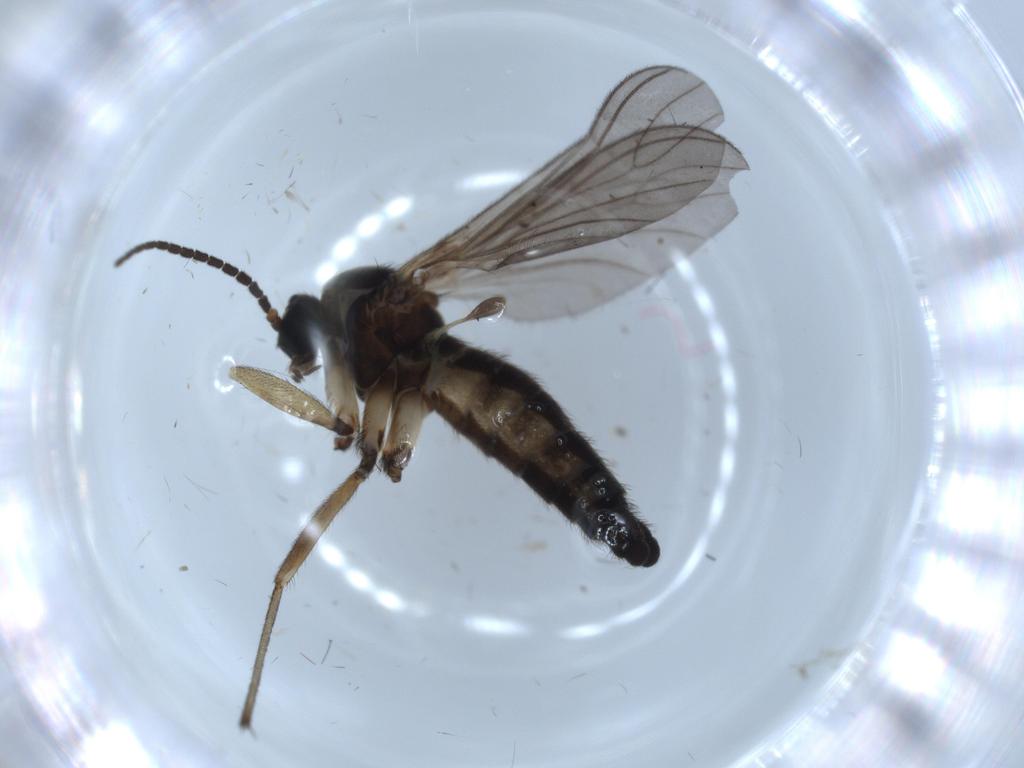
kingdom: Animalia
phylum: Arthropoda
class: Insecta
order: Diptera
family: Sciaridae
